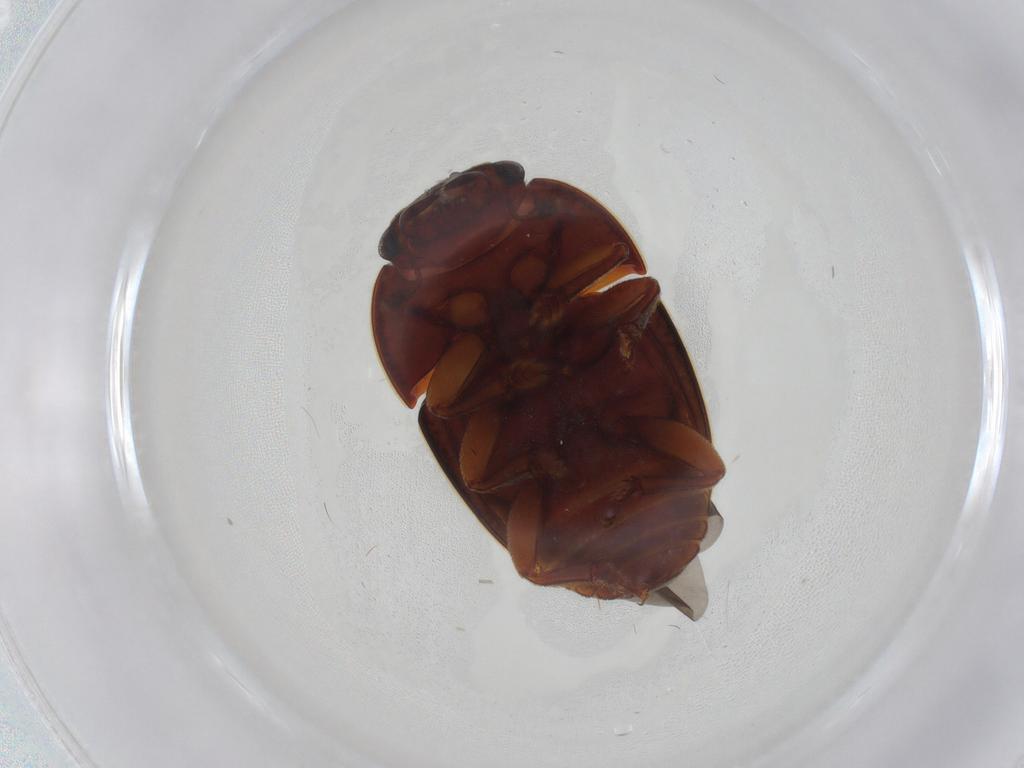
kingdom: Animalia
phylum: Arthropoda
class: Insecta
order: Coleoptera
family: Nitidulidae
